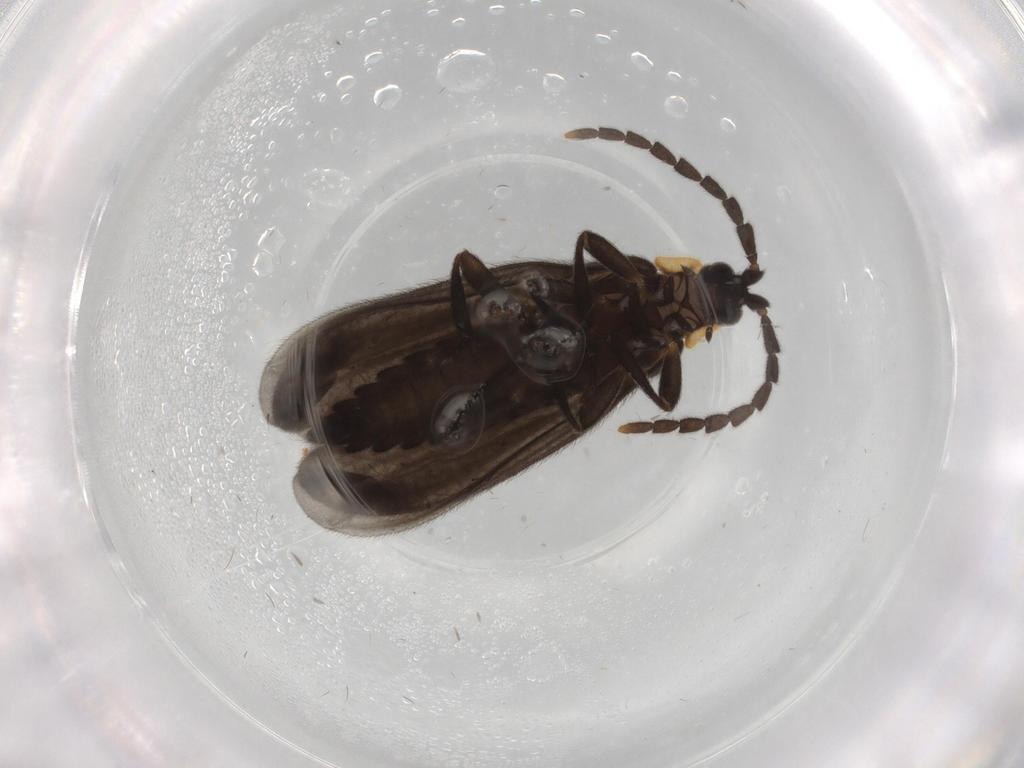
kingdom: Animalia
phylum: Arthropoda
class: Insecta
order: Coleoptera
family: Lycidae
